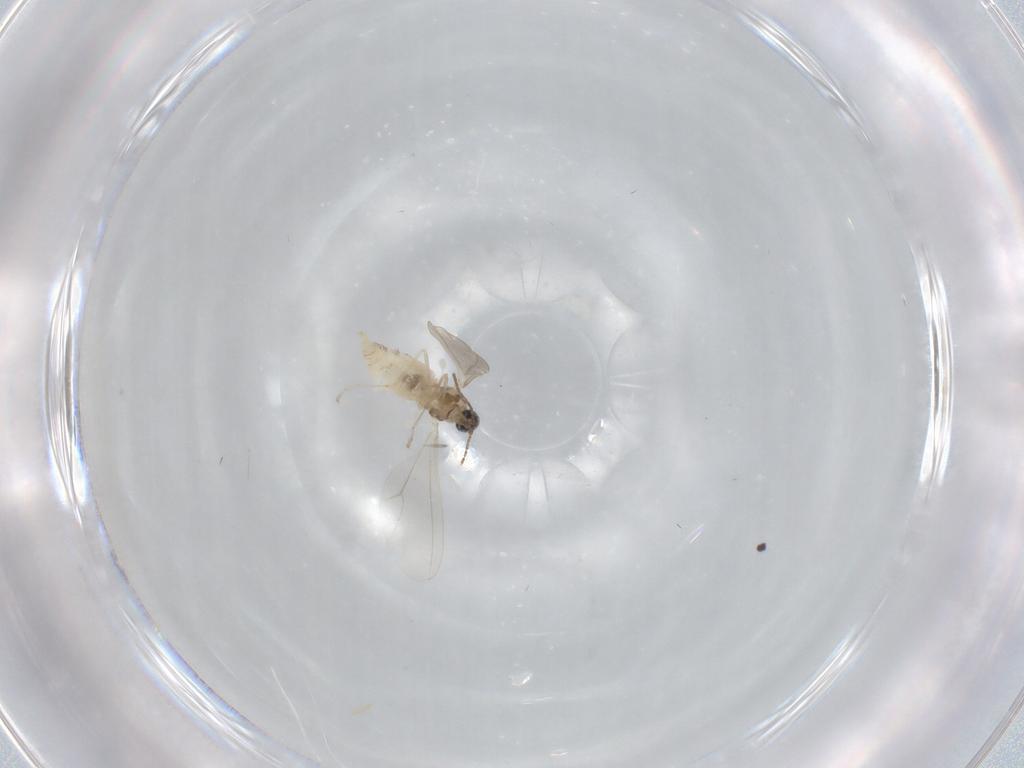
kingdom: Animalia
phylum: Arthropoda
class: Insecta
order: Diptera
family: Cecidomyiidae
